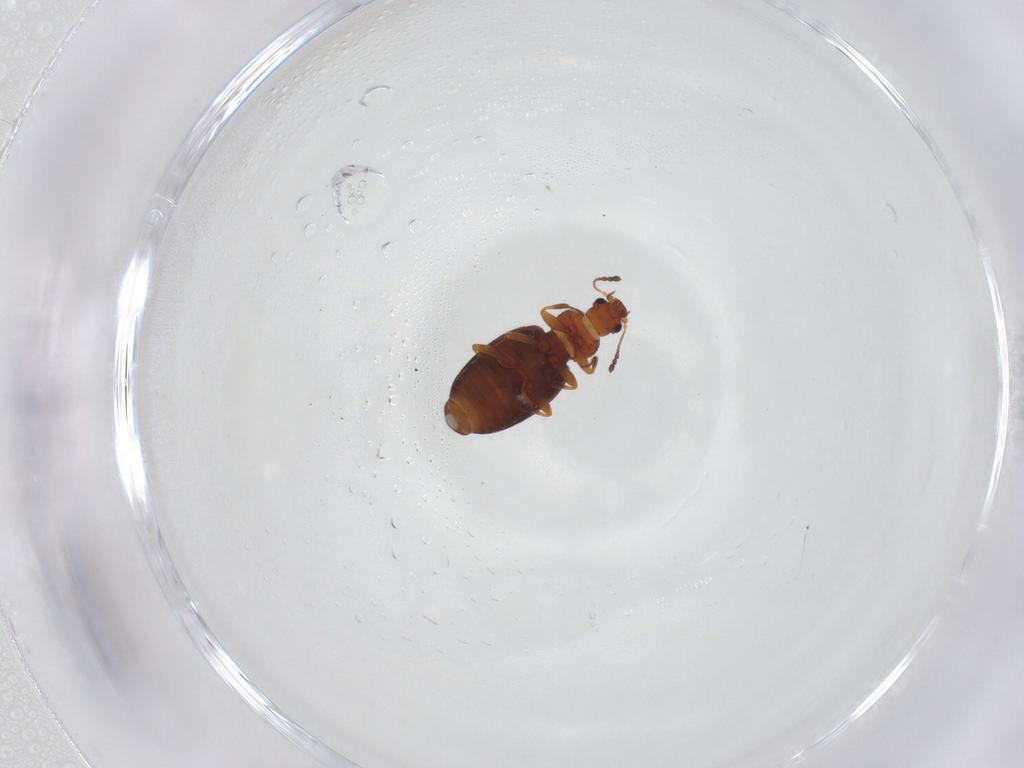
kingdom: Animalia
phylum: Arthropoda
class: Insecta
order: Coleoptera
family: Latridiidae
